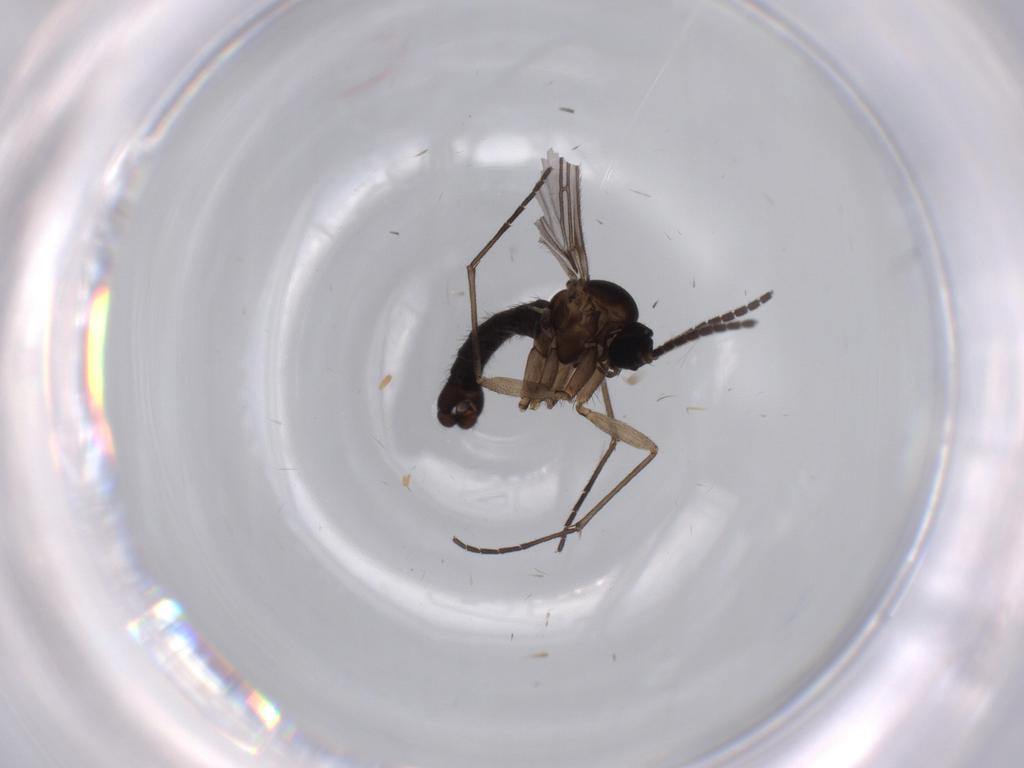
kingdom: Animalia
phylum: Arthropoda
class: Insecta
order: Diptera
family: Sciaridae
